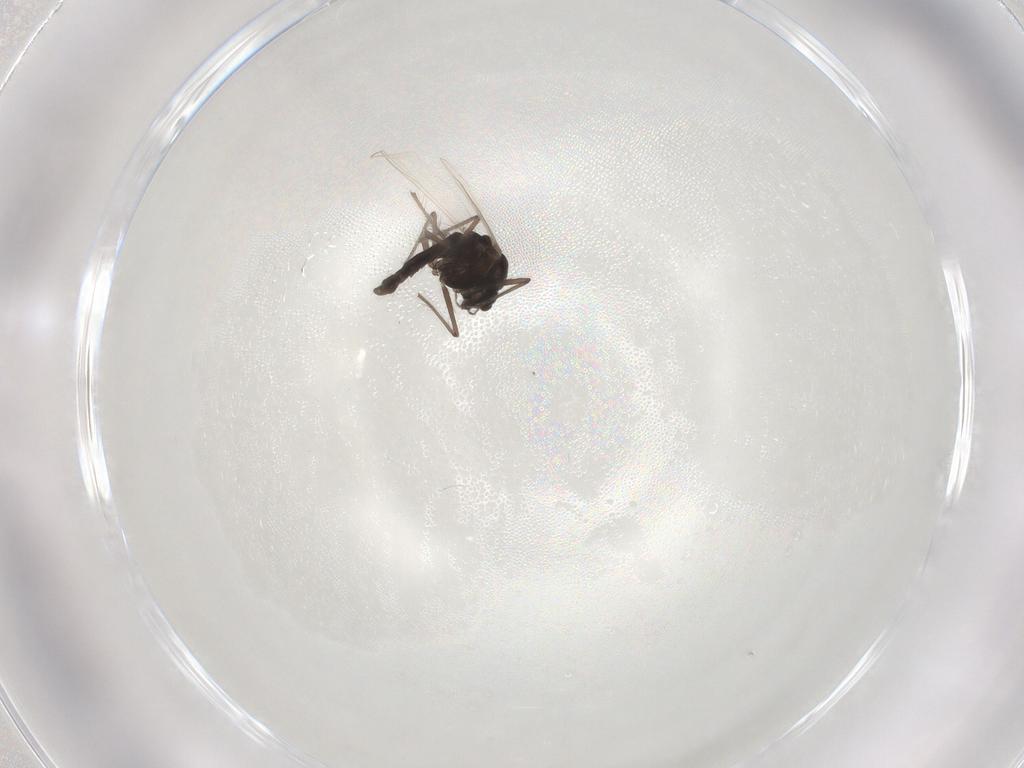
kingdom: Animalia
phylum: Arthropoda
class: Insecta
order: Diptera
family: Chironomidae
